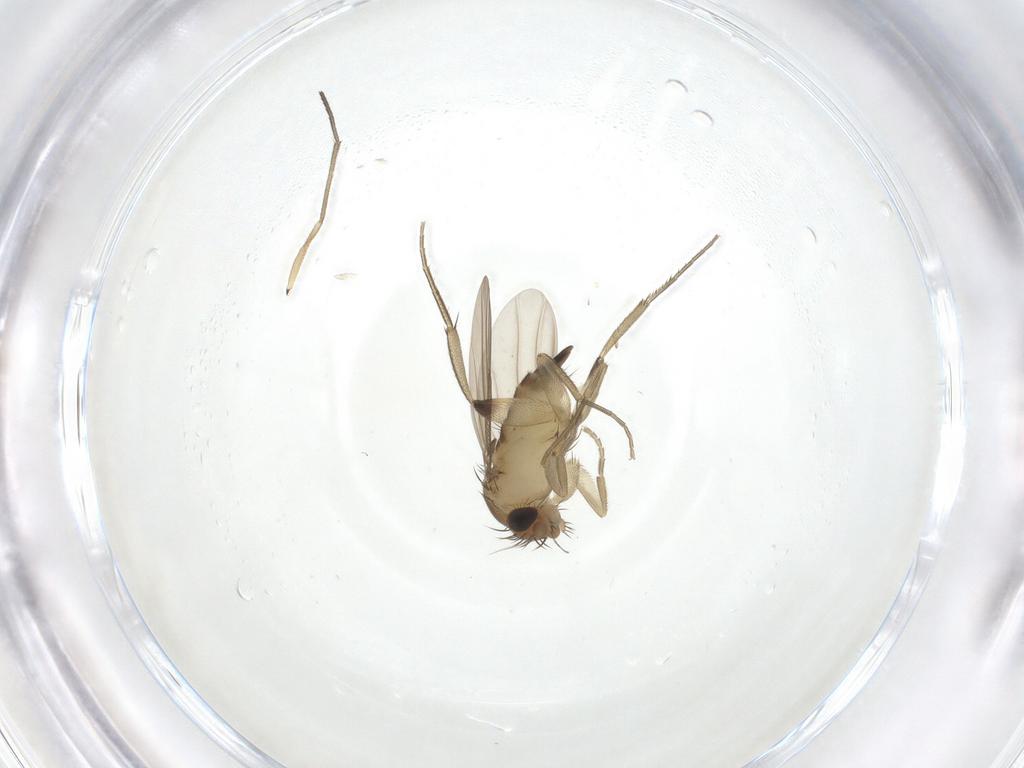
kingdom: Animalia
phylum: Arthropoda
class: Insecta
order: Diptera
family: Phoridae
